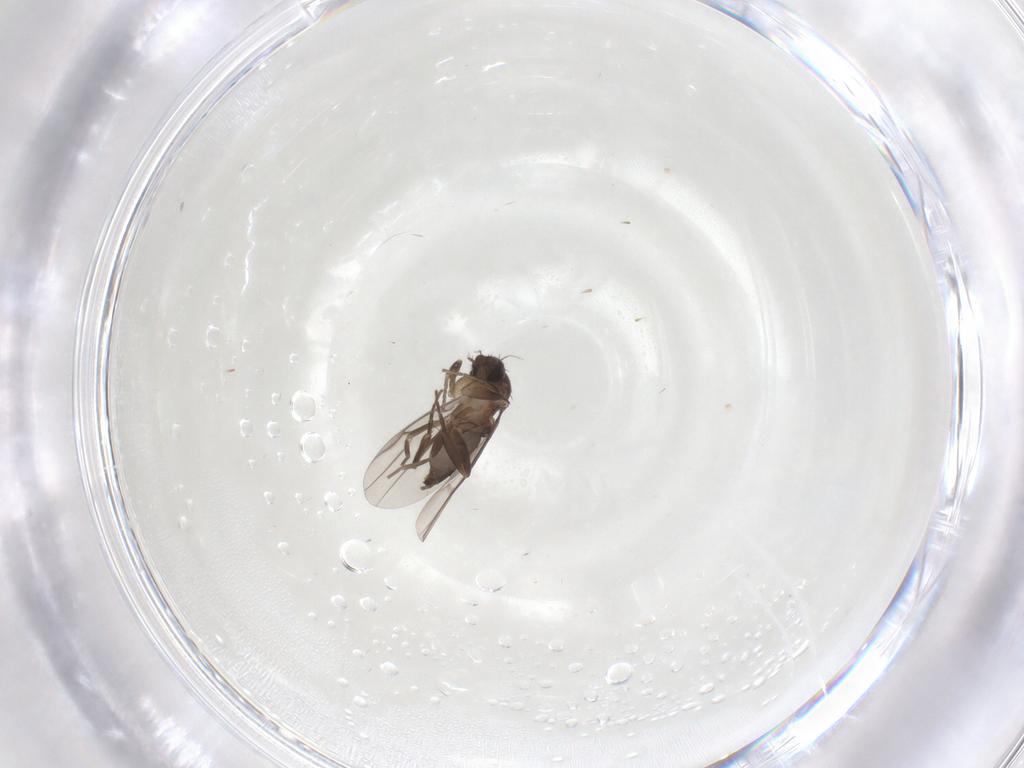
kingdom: Animalia
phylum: Arthropoda
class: Insecta
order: Diptera
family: Phoridae
